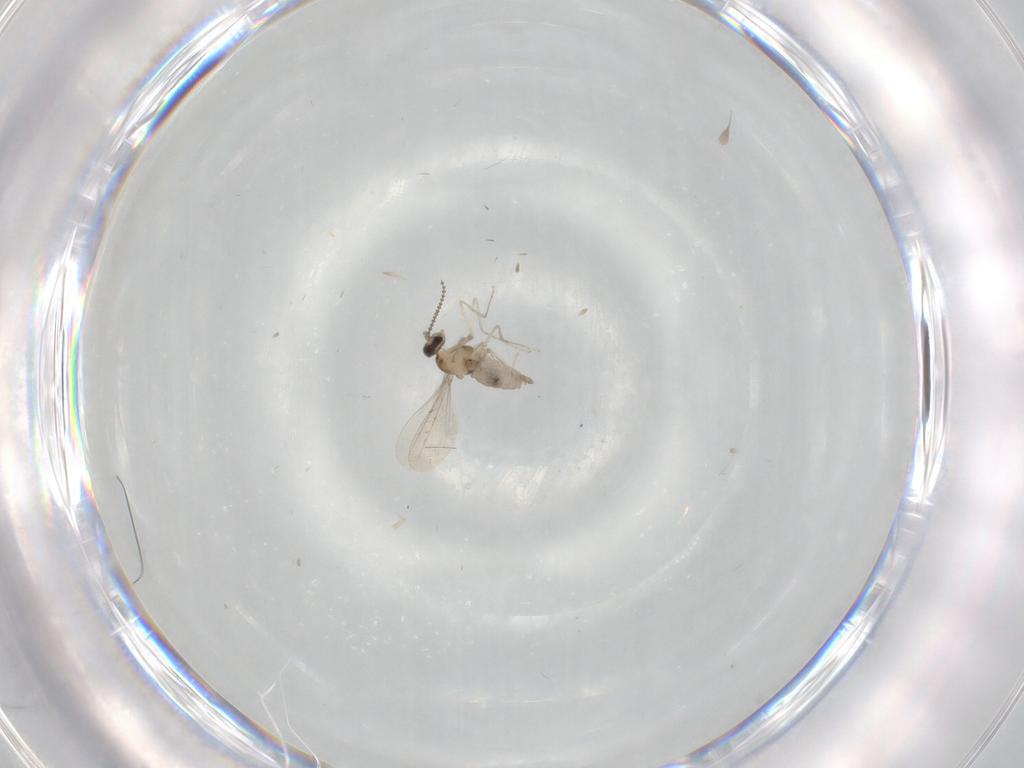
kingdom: Animalia
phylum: Arthropoda
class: Insecta
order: Diptera
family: Cecidomyiidae
